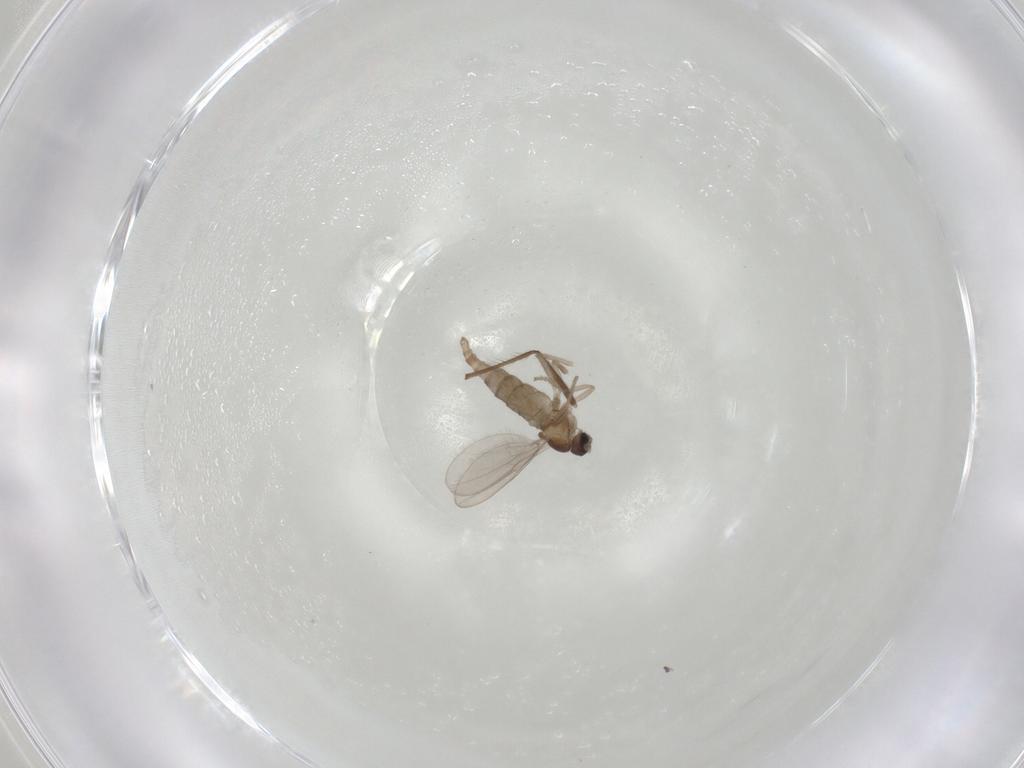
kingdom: Animalia
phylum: Arthropoda
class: Insecta
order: Diptera
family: Chironomidae
